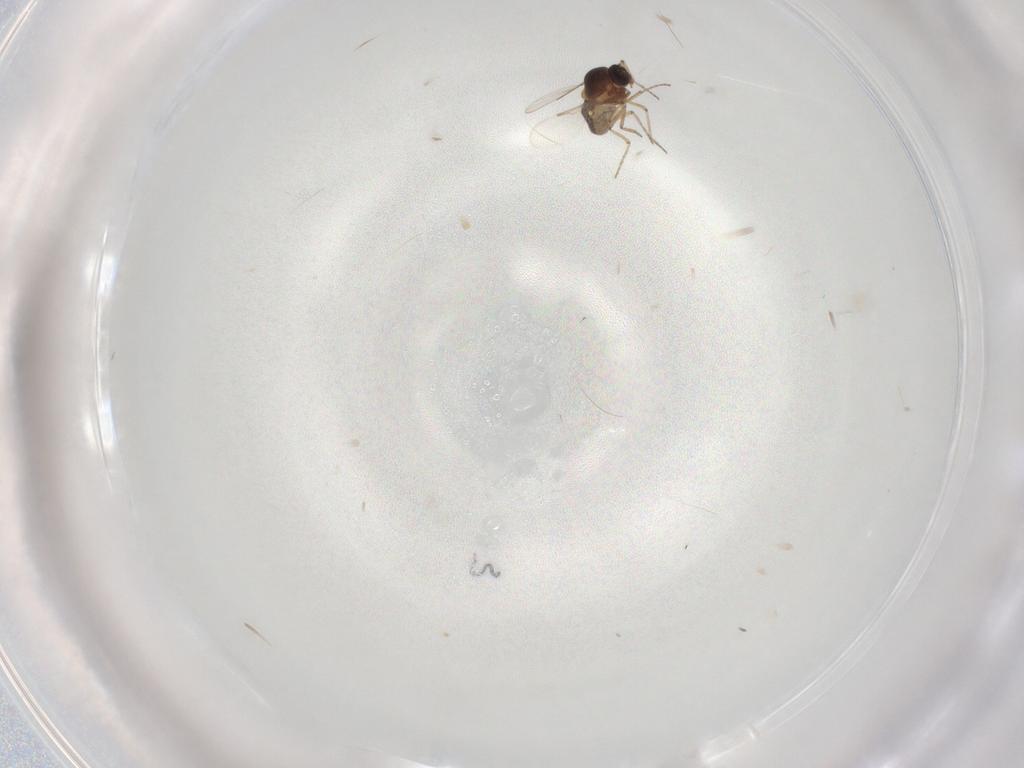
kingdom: Animalia
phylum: Arthropoda
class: Insecta
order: Diptera
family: Ceratopogonidae
